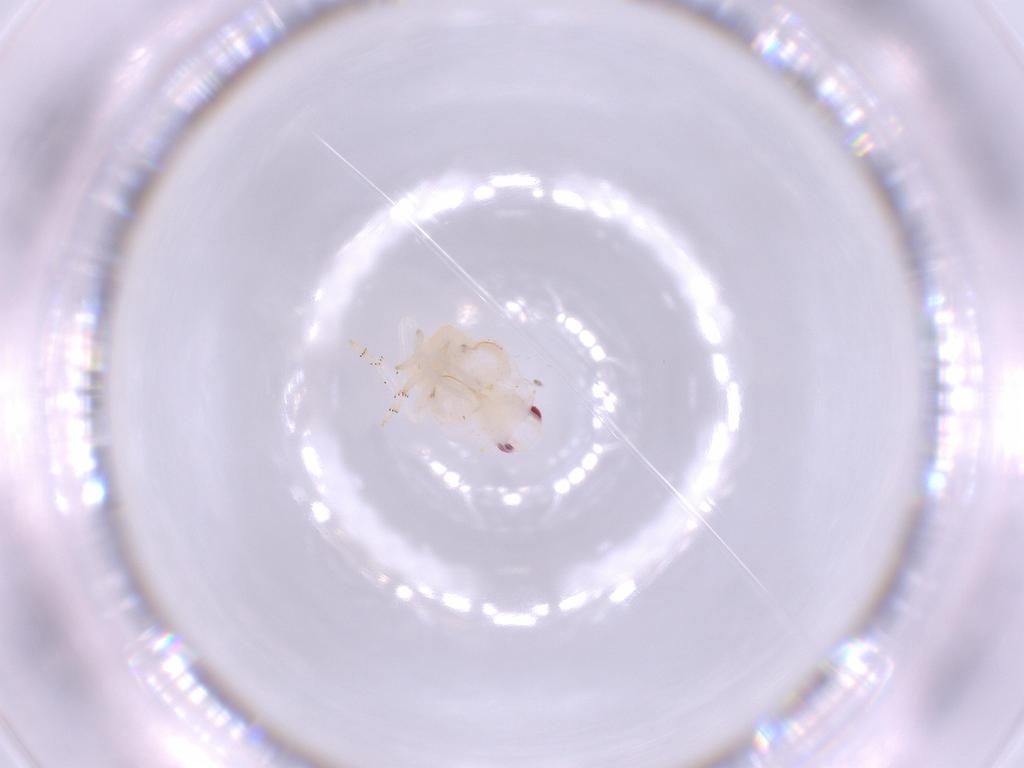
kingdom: Animalia
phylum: Arthropoda
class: Insecta
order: Hemiptera
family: Flatidae
